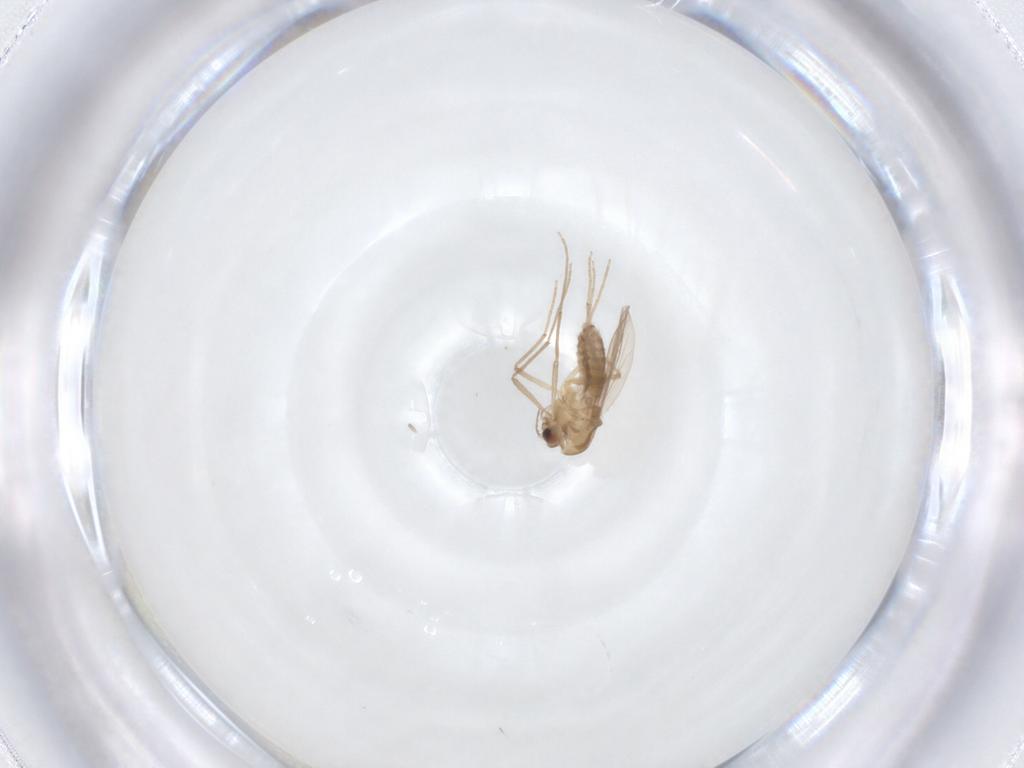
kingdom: Animalia
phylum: Arthropoda
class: Insecta
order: Diptera
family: Chironomidae
